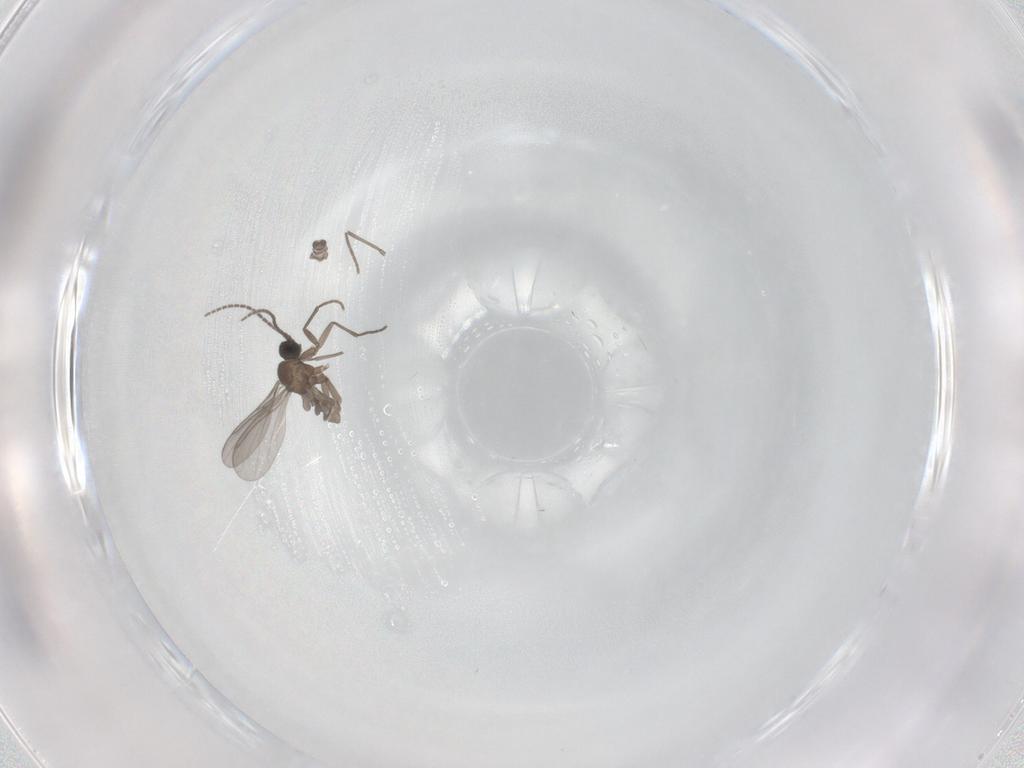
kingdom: Animalia
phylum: Arthropoda
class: Insecta
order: Diptera
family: Sciaridae
